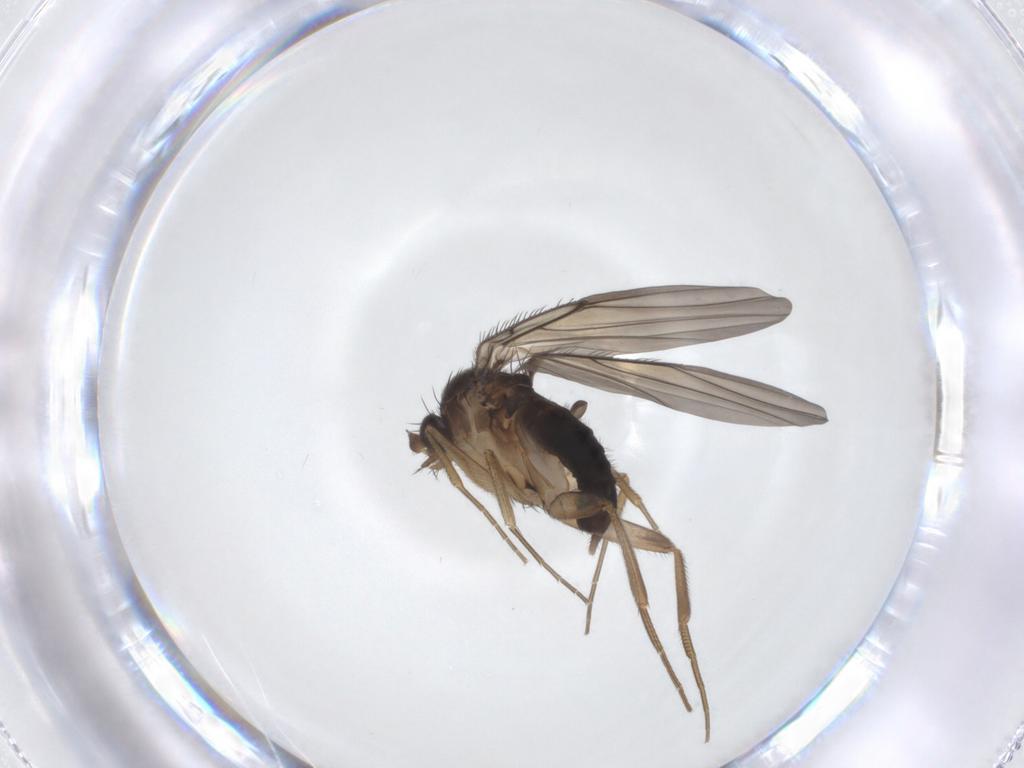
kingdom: Animalia
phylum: Arthropoda
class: Insecta
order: Diptera
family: Phoridae
